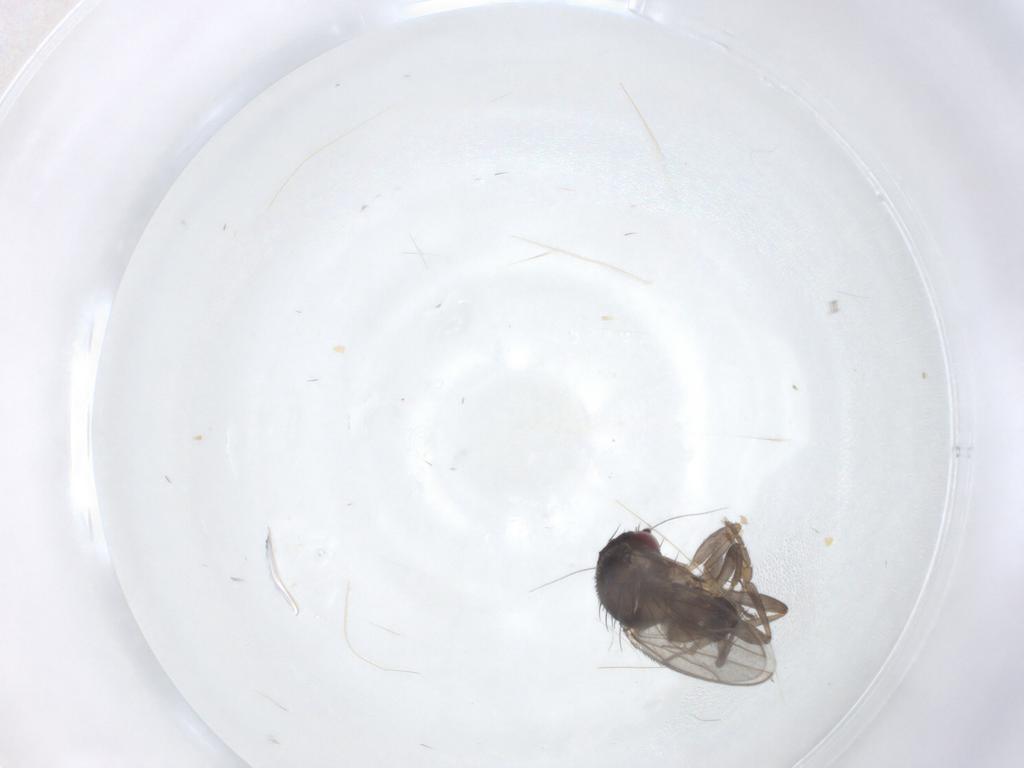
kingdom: Animalia
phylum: Arthropoda
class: Insecta
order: Diptera
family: Sphaeroceridae
